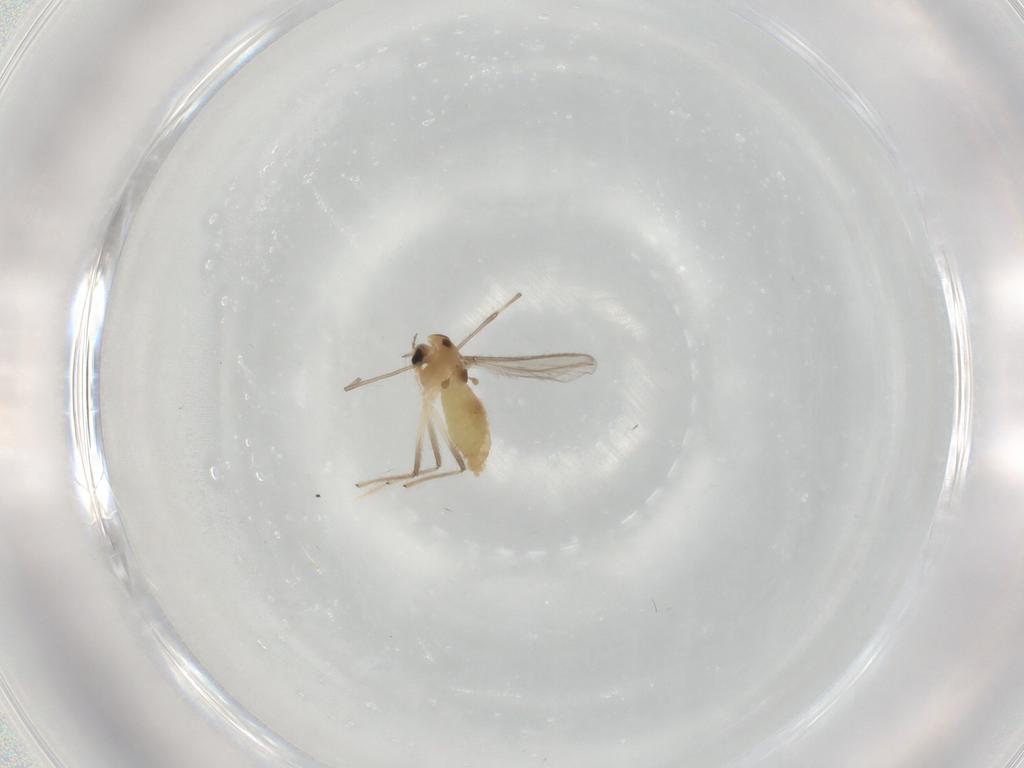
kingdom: Animalia
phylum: Arthropoda
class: Insecta
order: Diptera
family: Chironomidae
